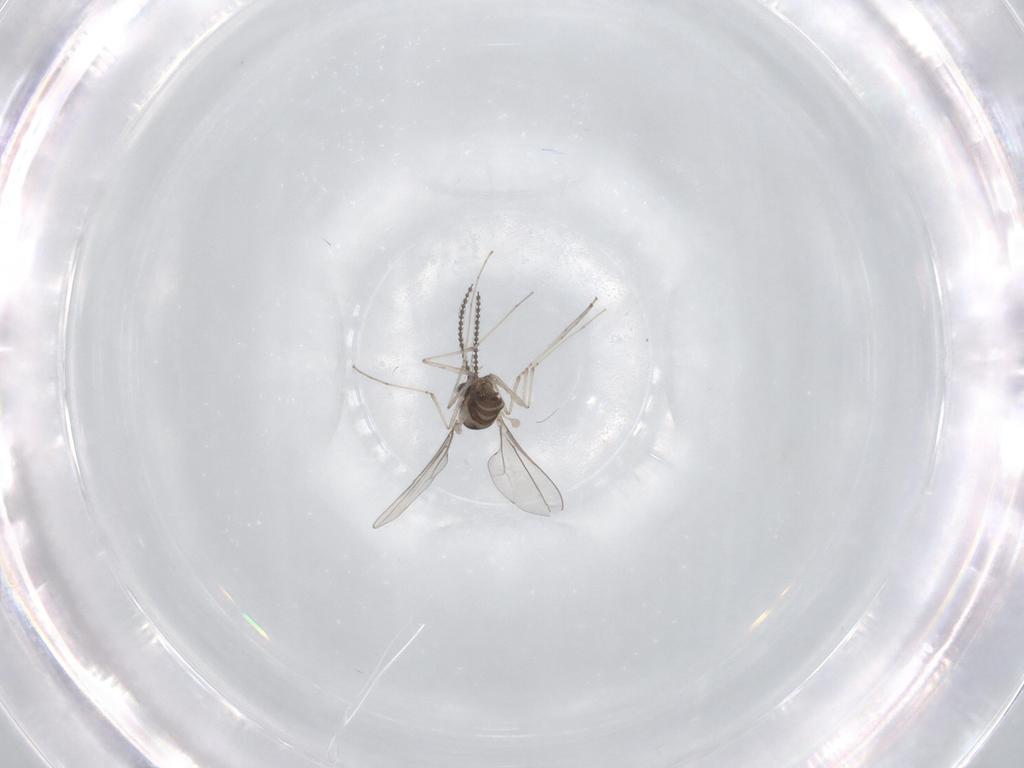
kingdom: Animalia
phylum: Arthropoda
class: Insecta
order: Diptera
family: Cecidomyiidae
